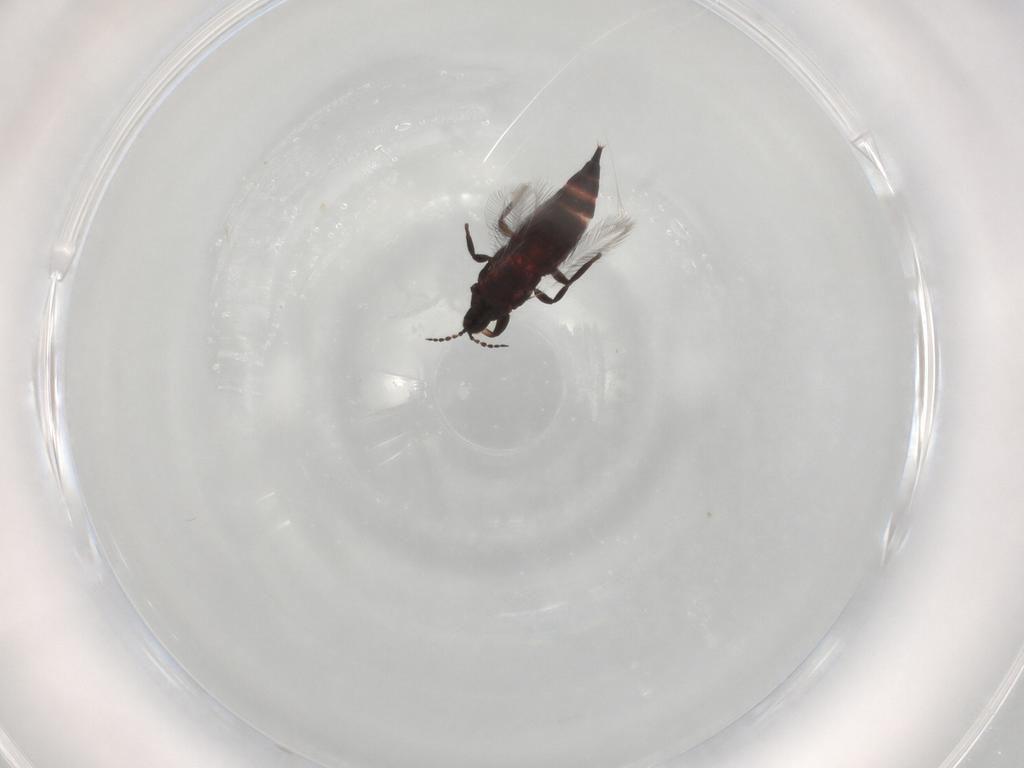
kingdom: Animalia
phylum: Arthropoda
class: Insecta
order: Thysanoptera
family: Phlaeothripidae
